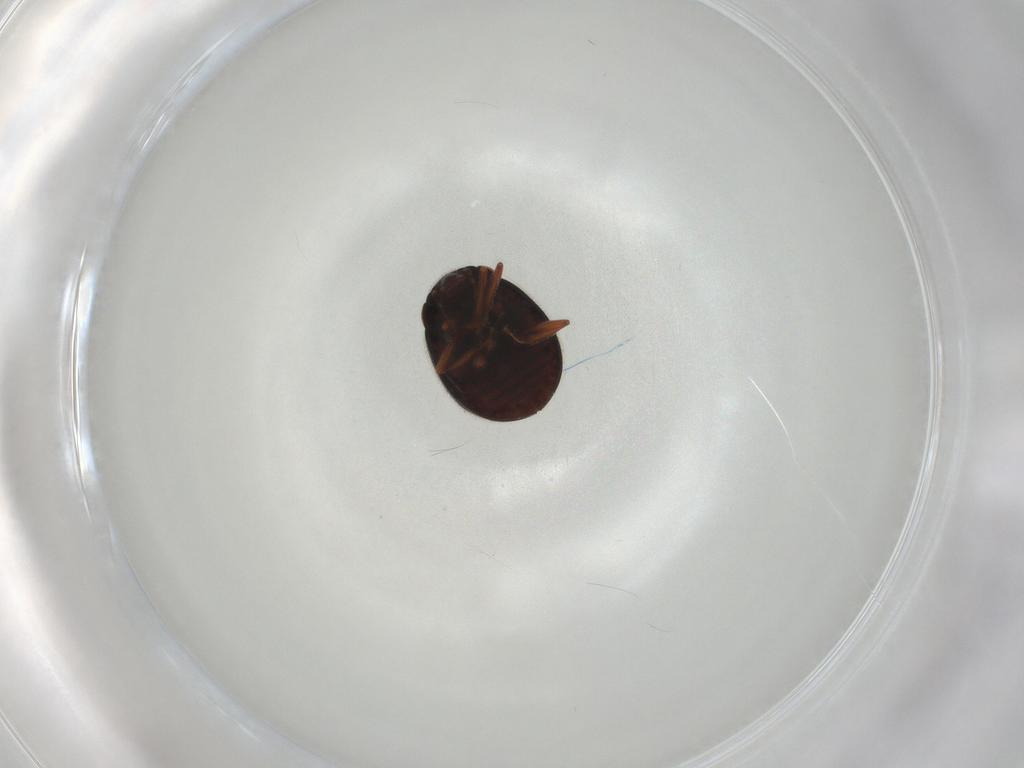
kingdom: Animalia
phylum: Arthropoda
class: Insecta
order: Coleoptera
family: Sphindidae
